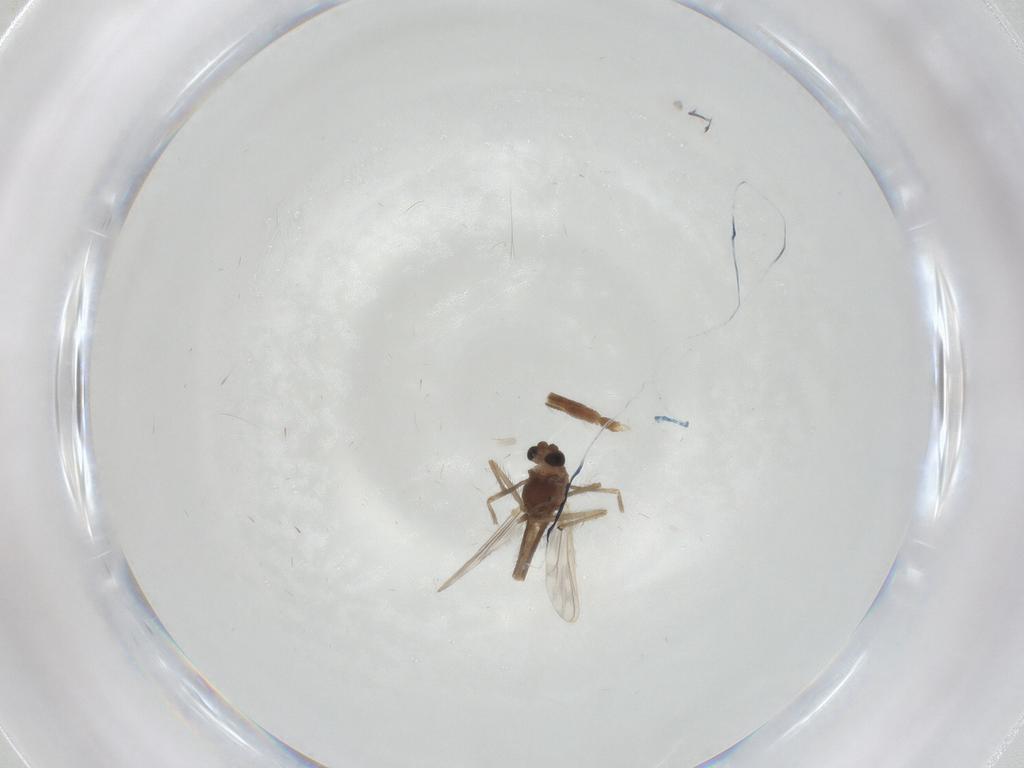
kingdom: Animalia
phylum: Arthropoda
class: Insecta
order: Diptera
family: Chironomidae
